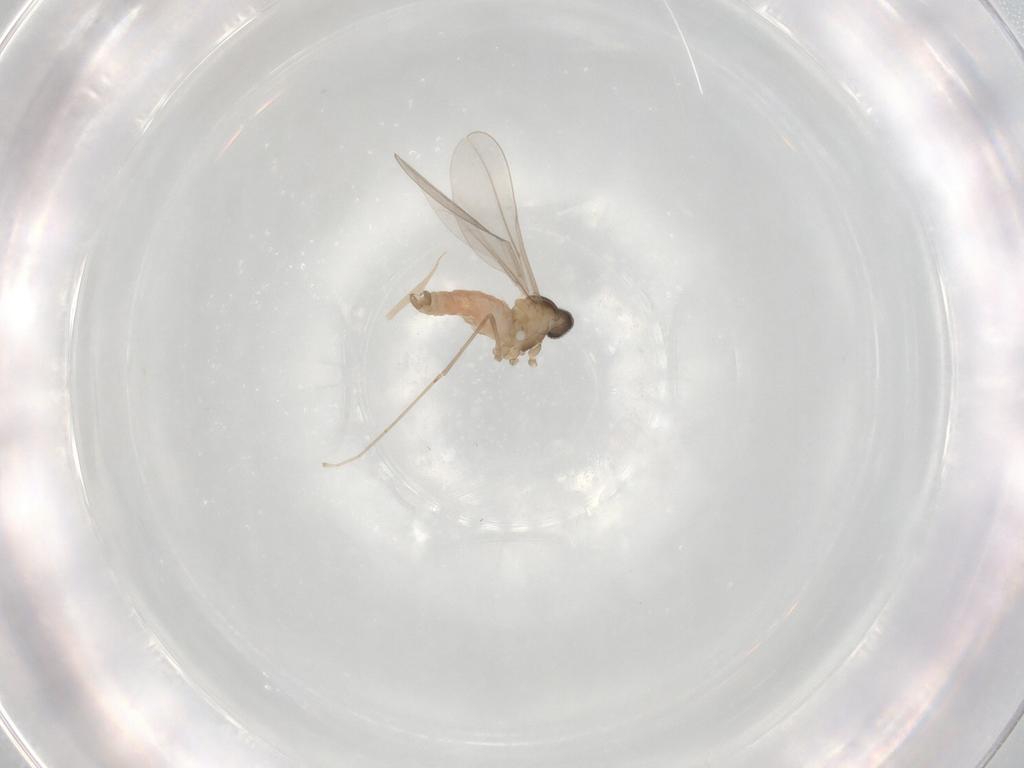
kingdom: Animalia
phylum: Arthropoda
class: Insecta
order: Diptera
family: Cecidomyiidae
